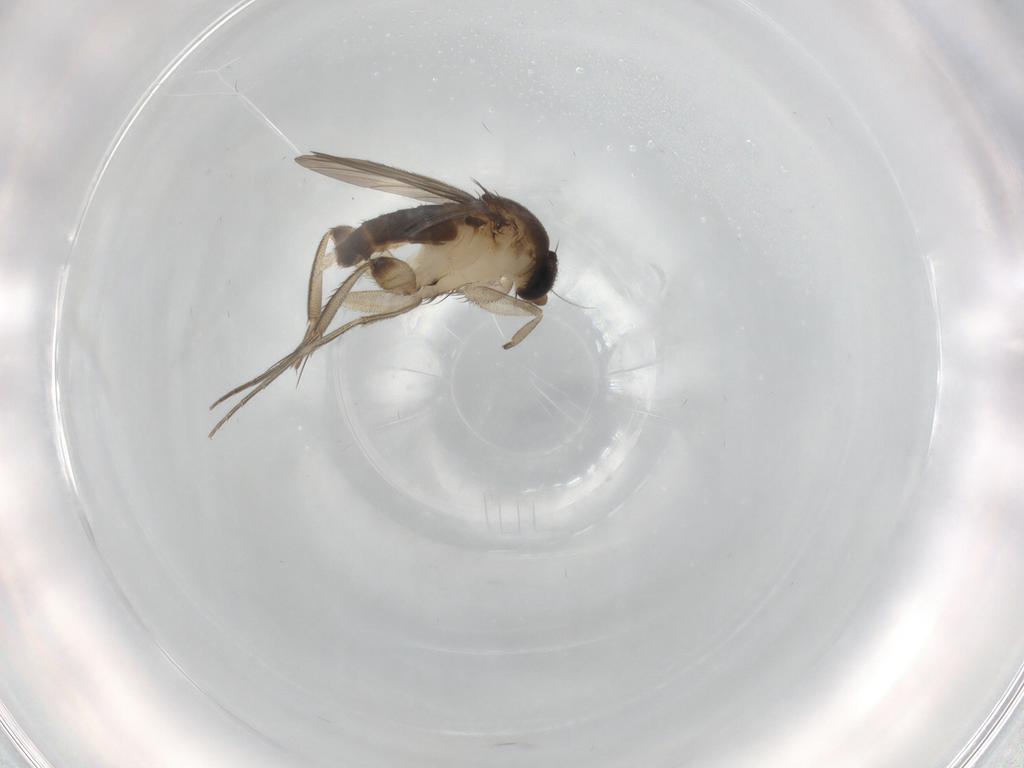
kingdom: Animalia
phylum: Arthropoda
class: Insecta
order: Diptera
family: Phoridae
